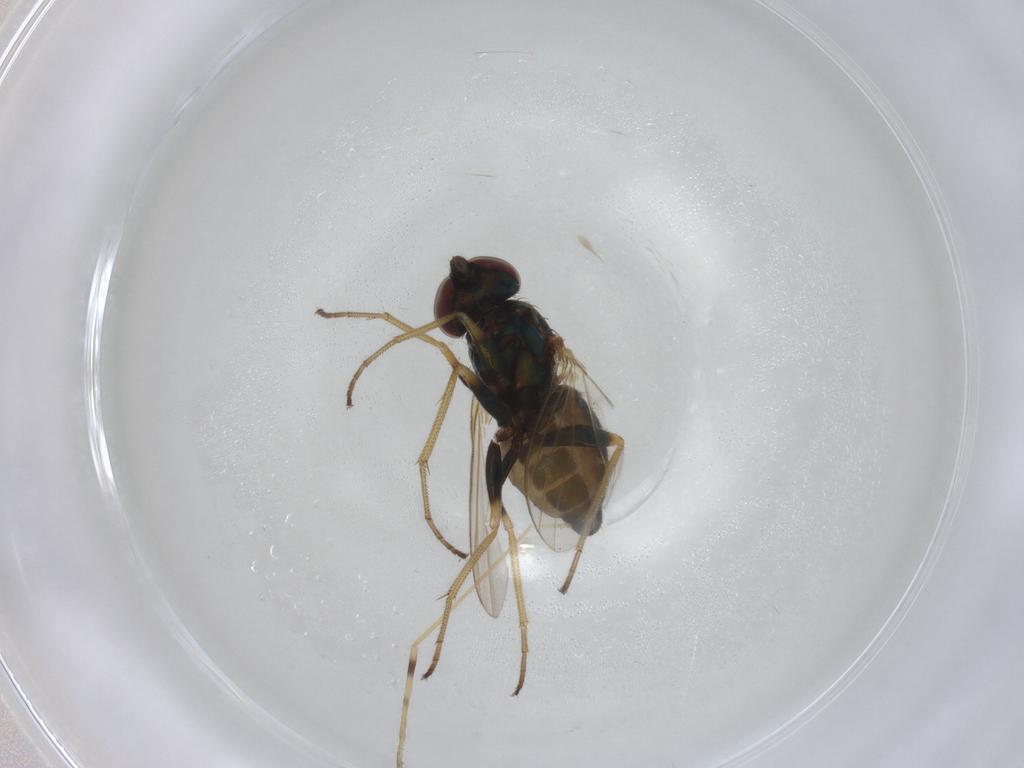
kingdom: Animalia
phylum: Arthropoda
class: Insecta
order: Diptera
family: Dolichopodidae
